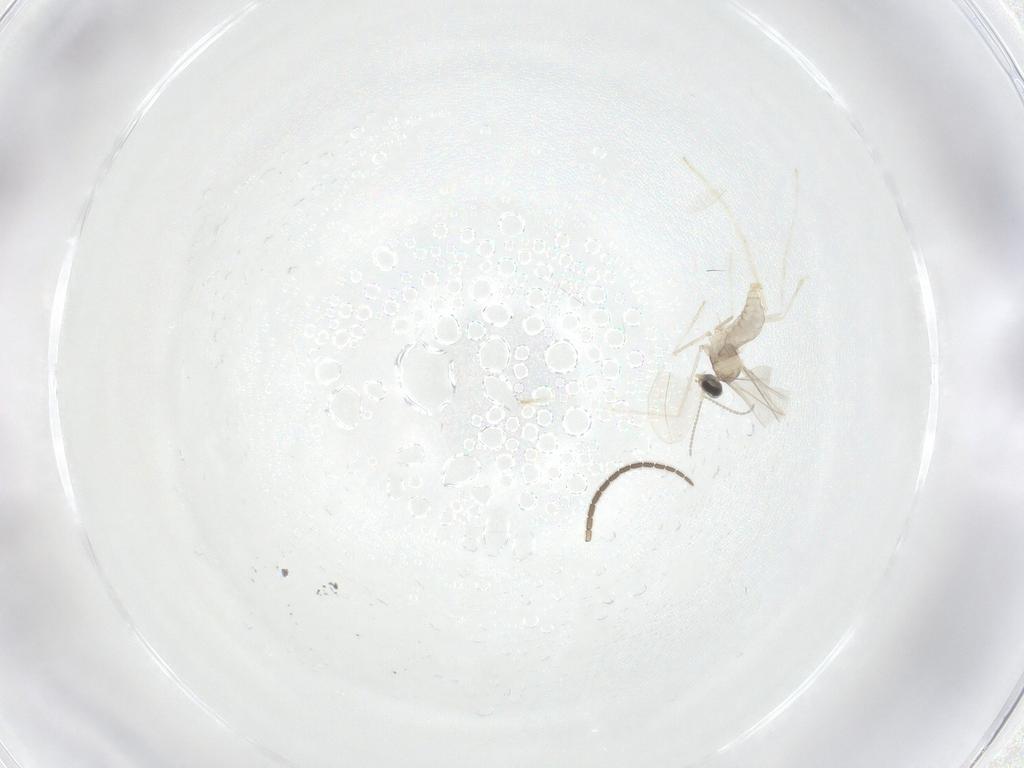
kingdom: Animalia
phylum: Arthropoda
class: Insecta
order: Diptera
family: Cecidomyiidae
